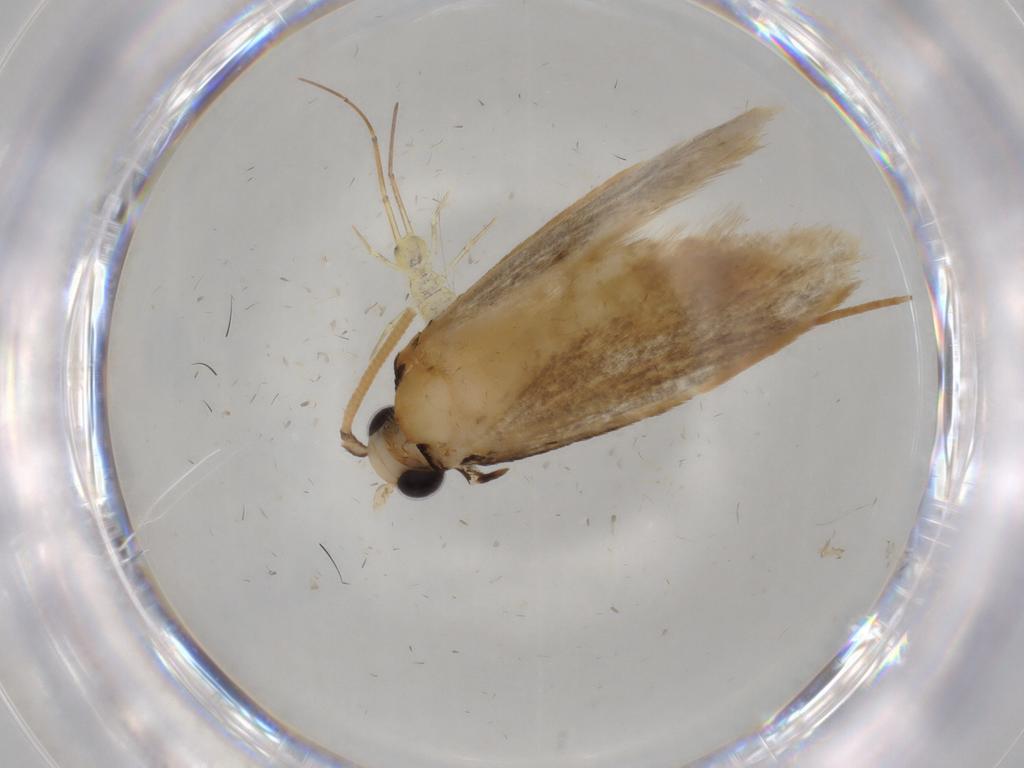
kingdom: Animalia
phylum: Arthropoda
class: Insecta
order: Lepidoptera
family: Tineidae
